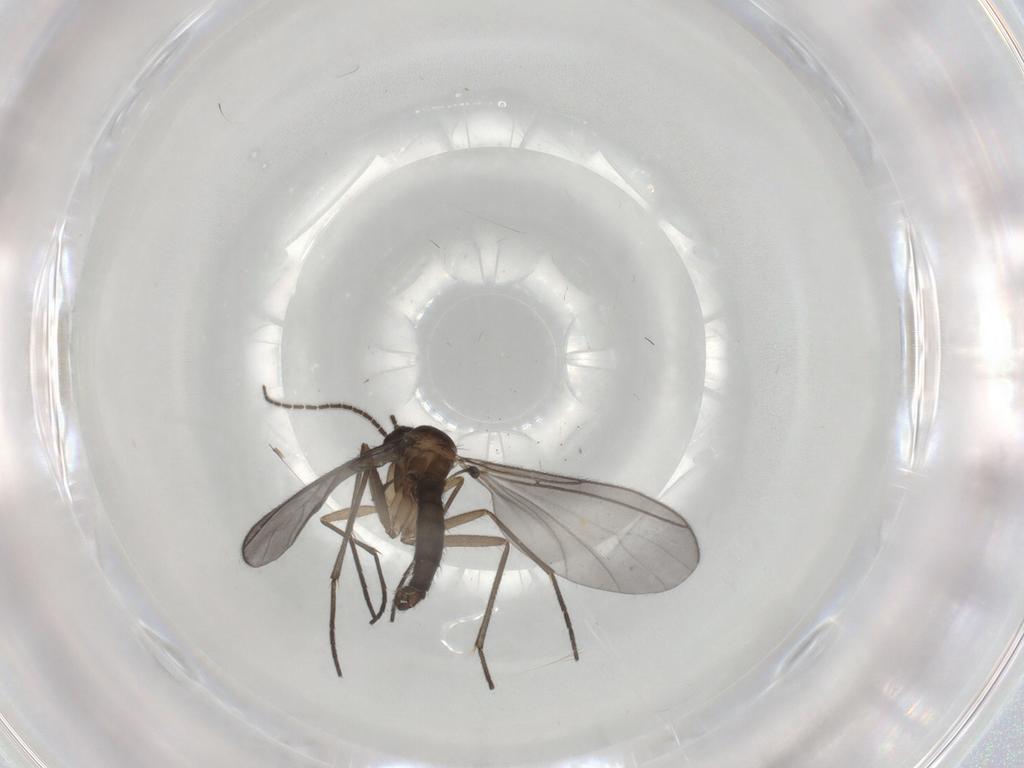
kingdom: Animalia
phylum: Arthropoda
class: Insecta
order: Diptera
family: Sciaridae
